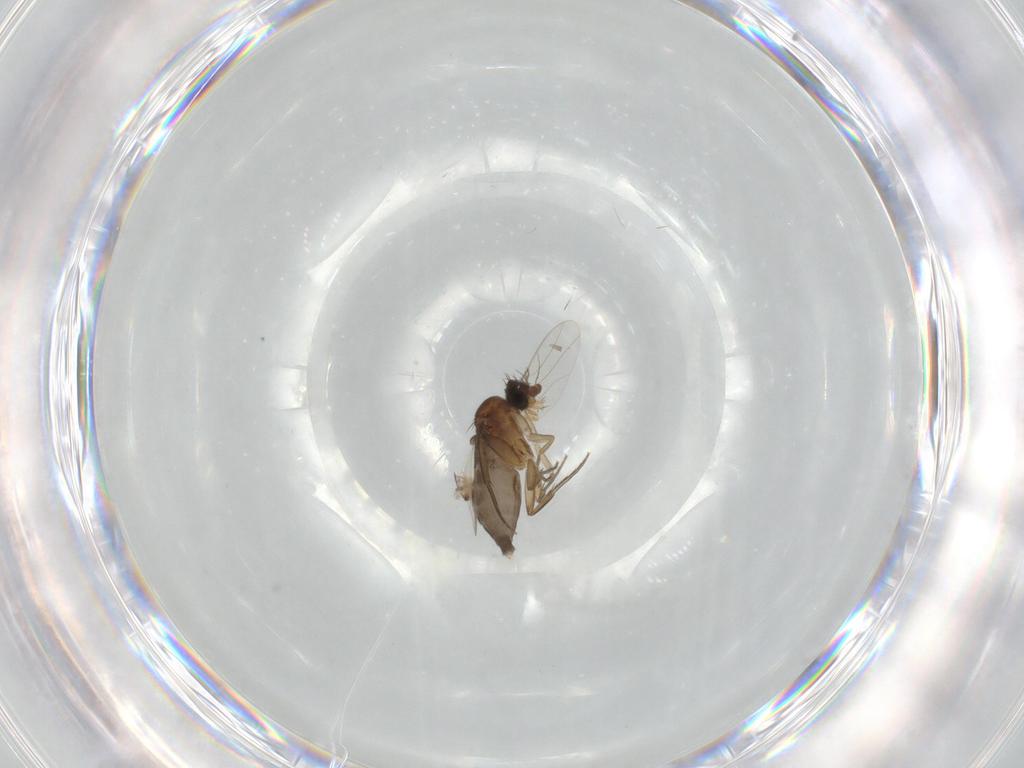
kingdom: Animalia
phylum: Arthropoda
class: Insecta
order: Diptera
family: Phoridae
